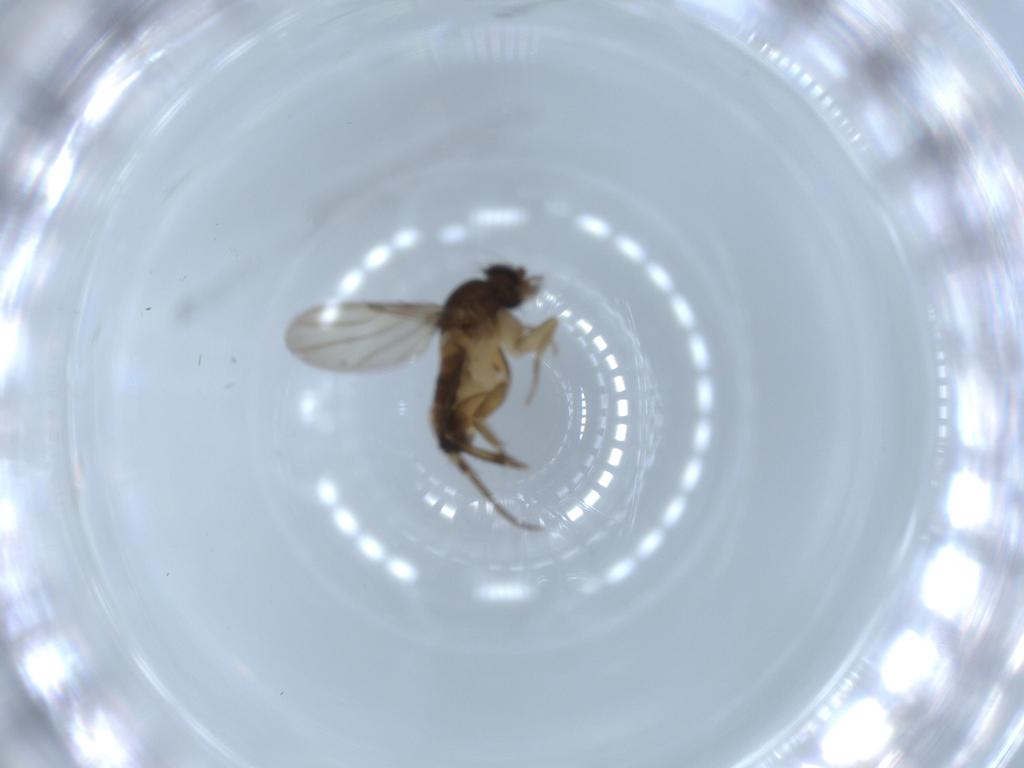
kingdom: Animalia
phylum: Arthropoda
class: Insecta
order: Diptera
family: Phoridae
